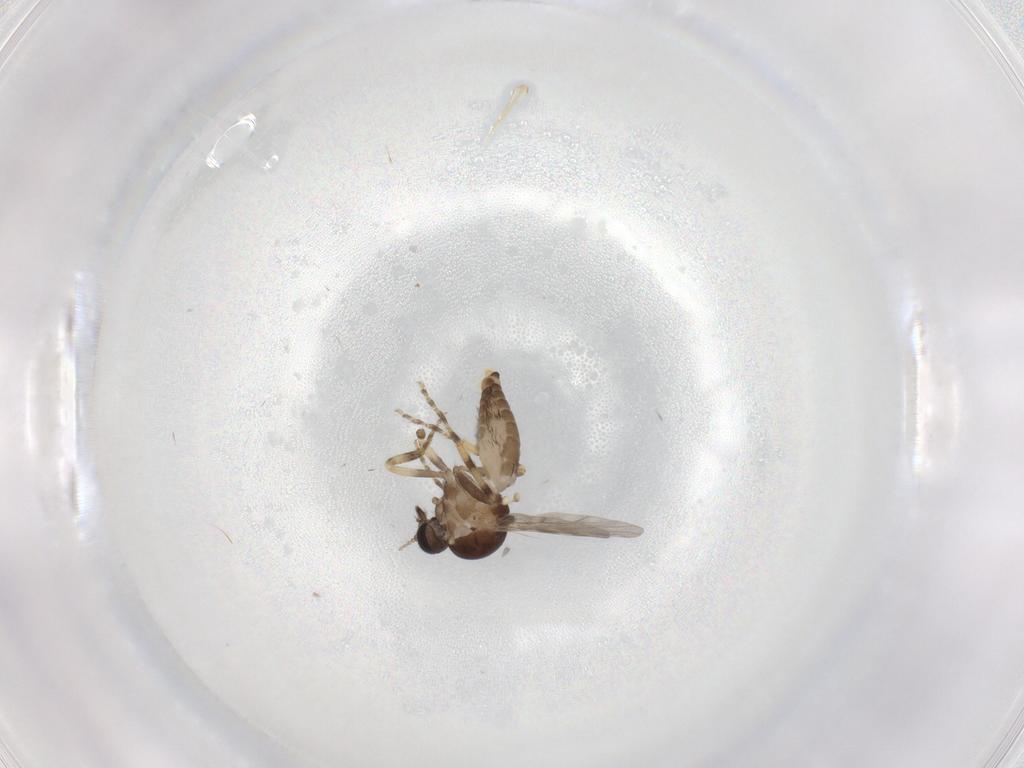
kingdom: Animalia
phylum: Arthropoda
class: Insecta
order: Diptera
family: Ceratopogonidae
